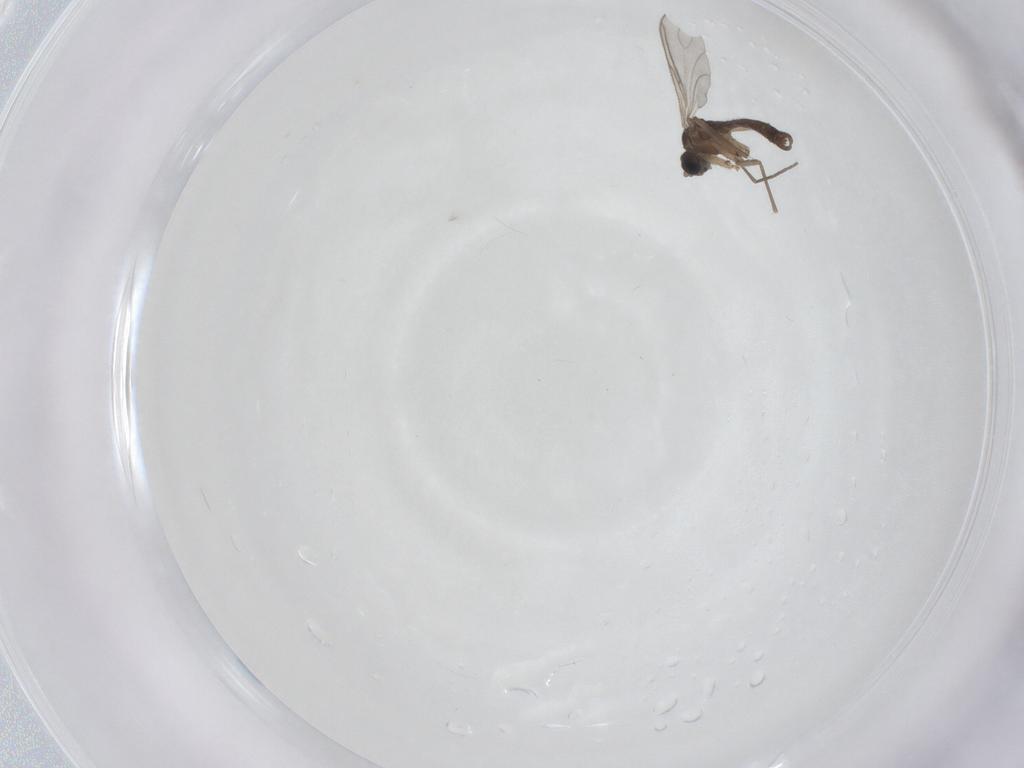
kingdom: Animalia
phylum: Arthropoda
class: Insecta
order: Diptera
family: Sciaridae
